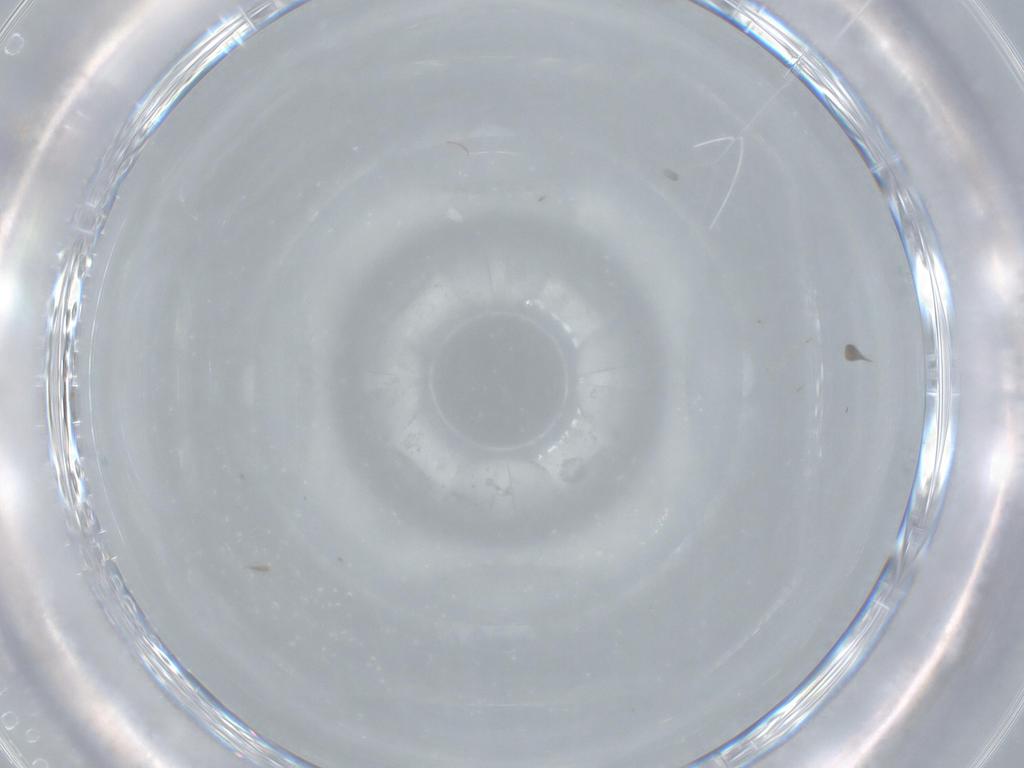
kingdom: Animalia
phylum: Arthropoda
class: Insecta
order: Diptera
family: Cecidomyiidae
